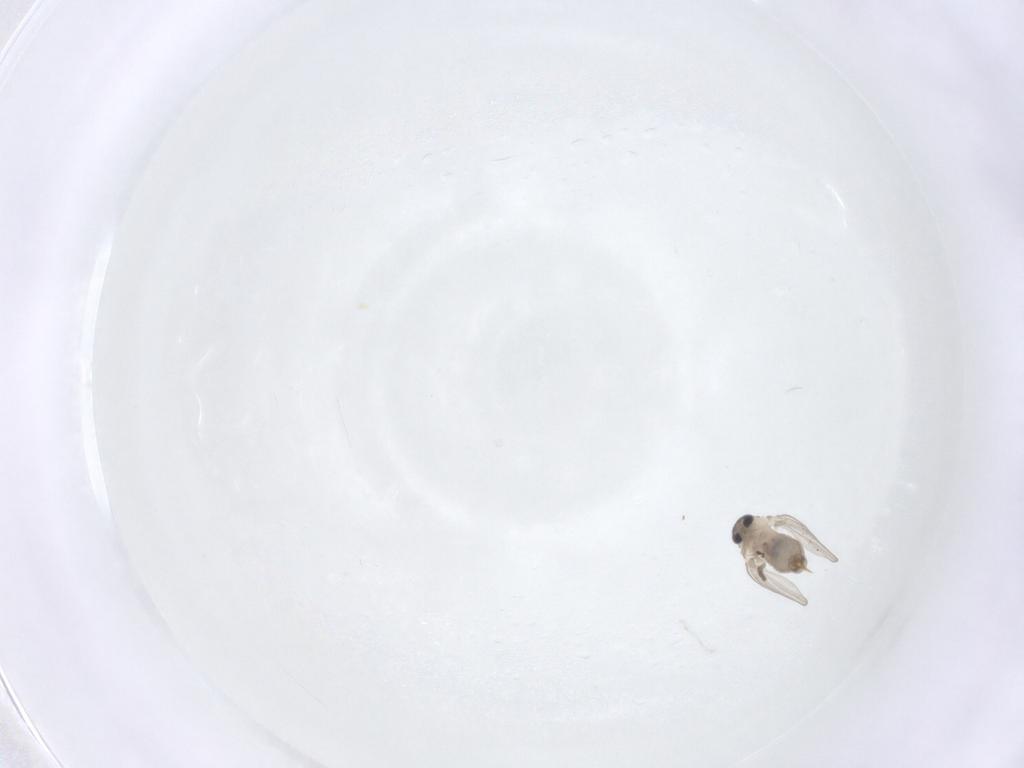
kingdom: Animalia
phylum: Arthropoda
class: Insecta
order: Diptera
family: Psychodidae
